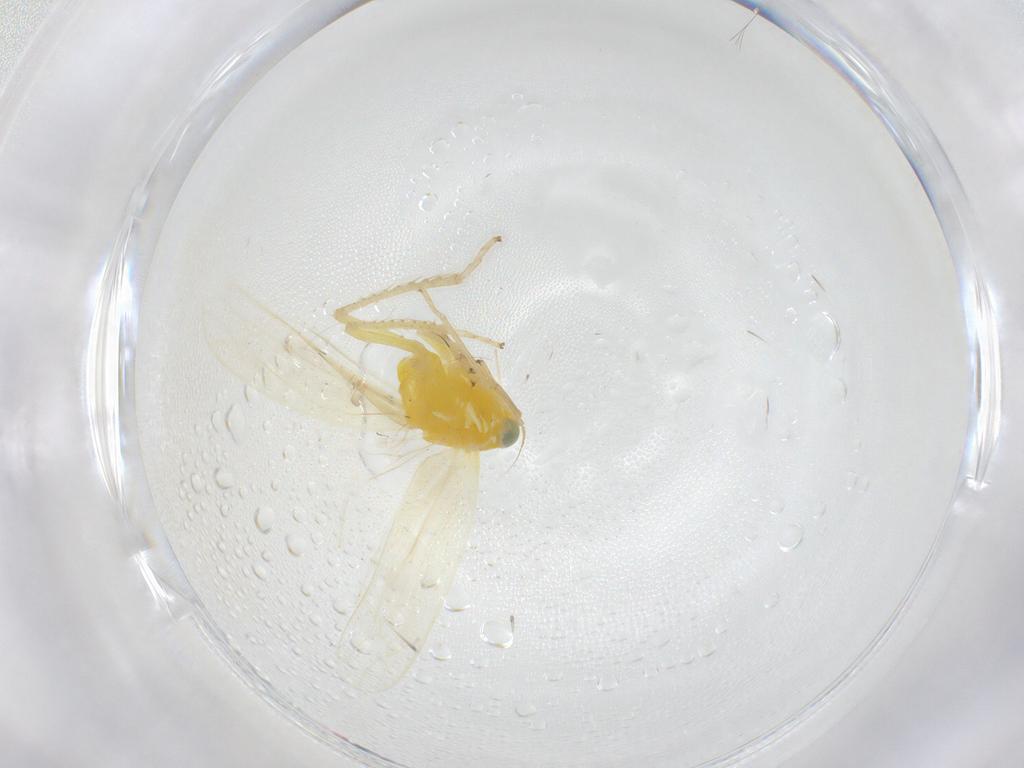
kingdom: Animalia
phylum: Arthropoda
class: Insecta
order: Hemiptera
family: Cicadellidae
